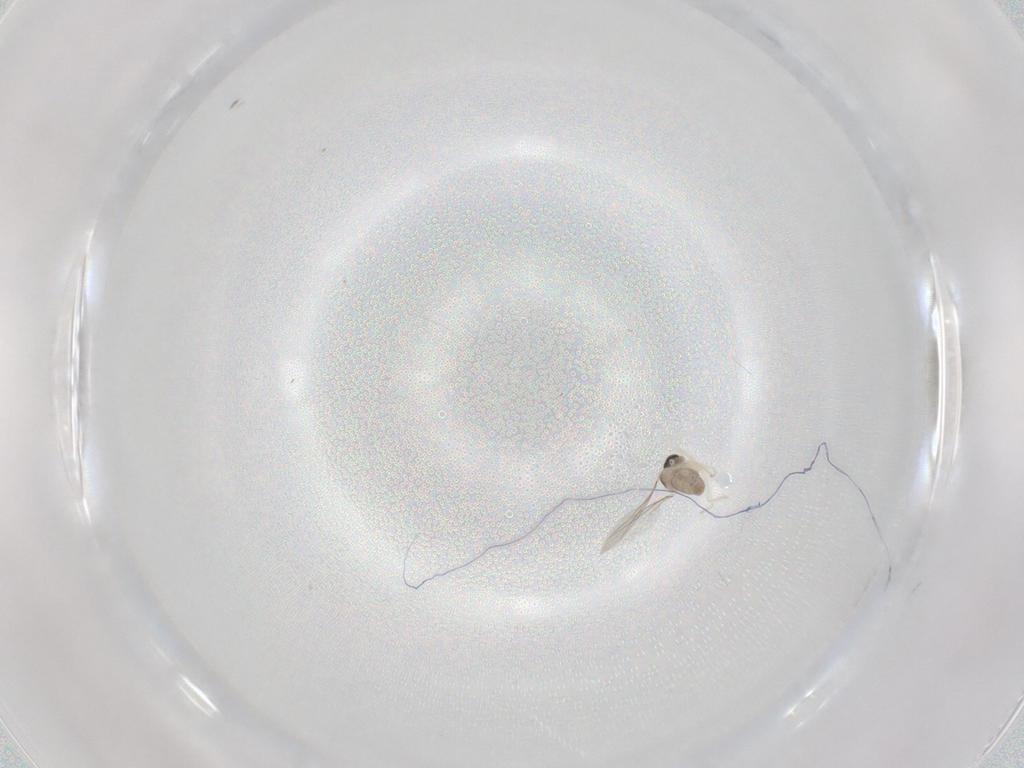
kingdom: Animalia
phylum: Arthropoda
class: Insecta
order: Diptera
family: Cecidomyiidae
